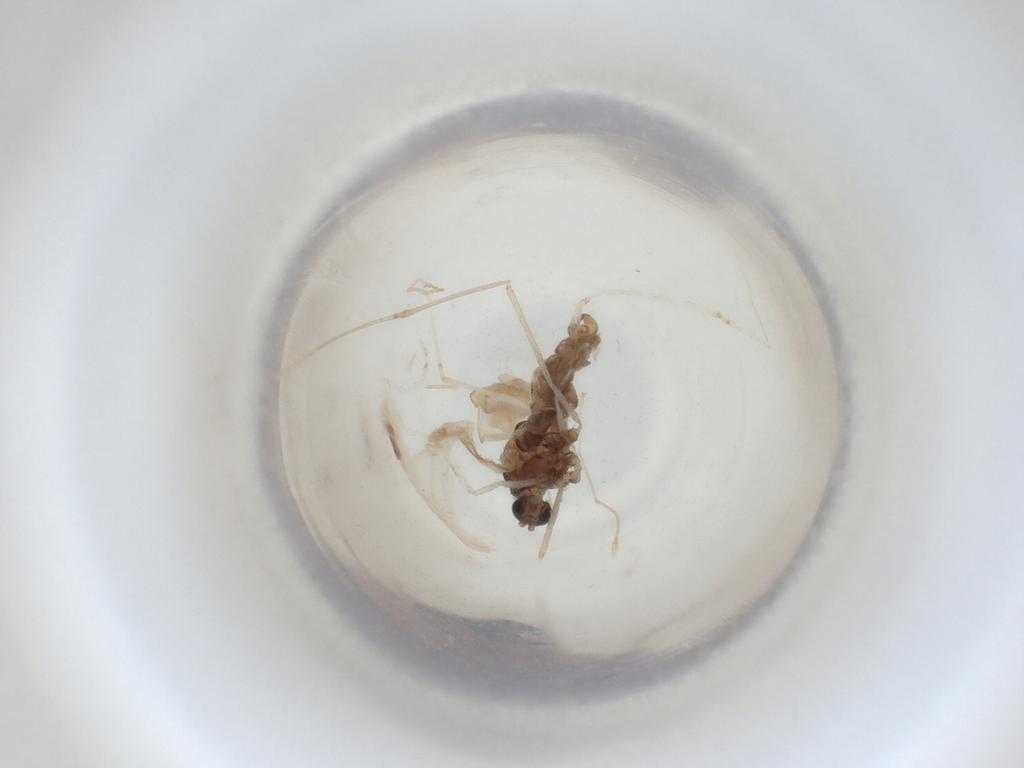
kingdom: Animalia
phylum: Arthropoda
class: Insecta
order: Diptera
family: Cecidomyiidae
